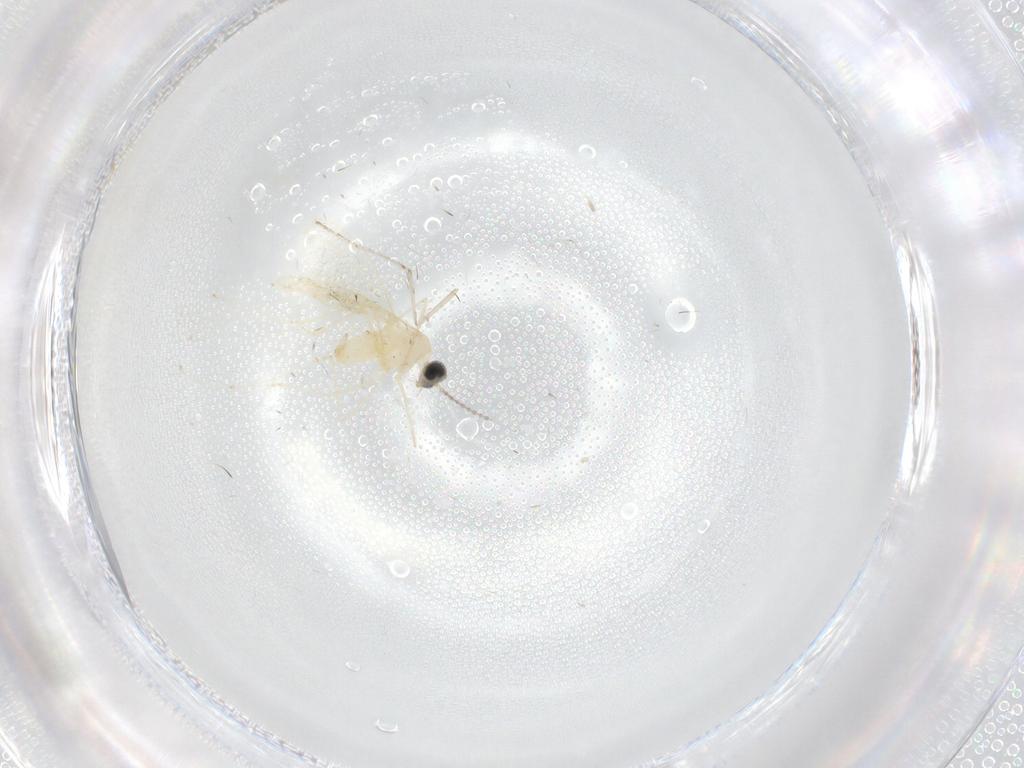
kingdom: Animalia
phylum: Arthropoda
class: Insecta
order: Diptera
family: Cecidomyiidae
